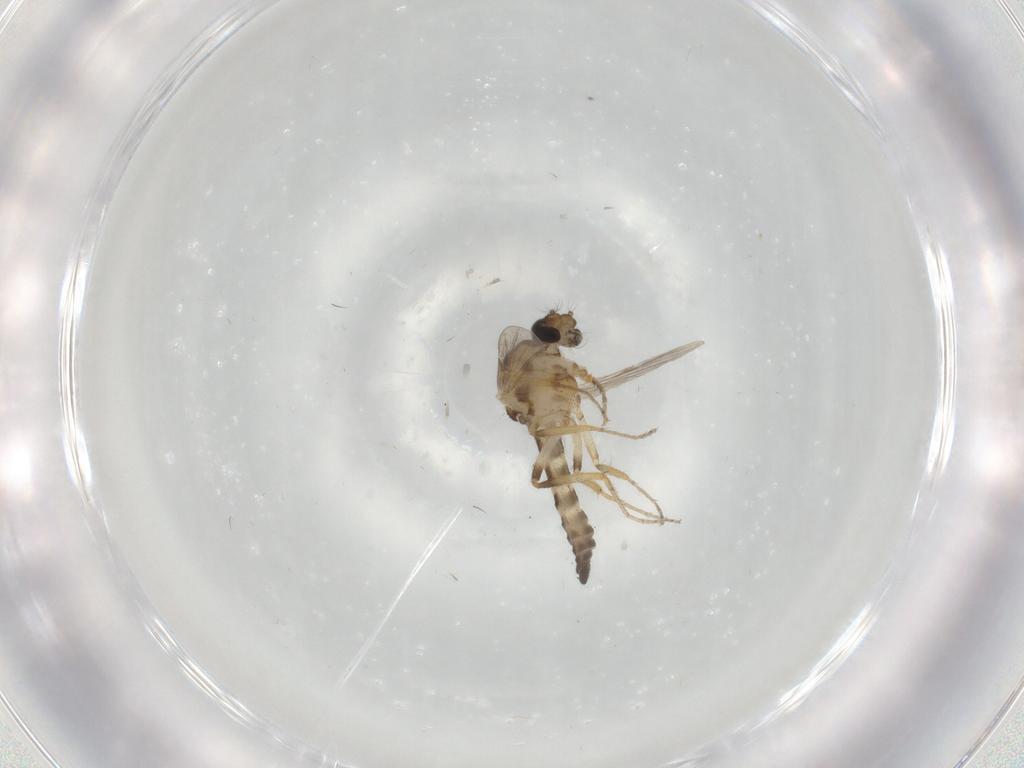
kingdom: Animalia
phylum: Arthropoda
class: Insecta
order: Diptera
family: Ceratopogonidae
